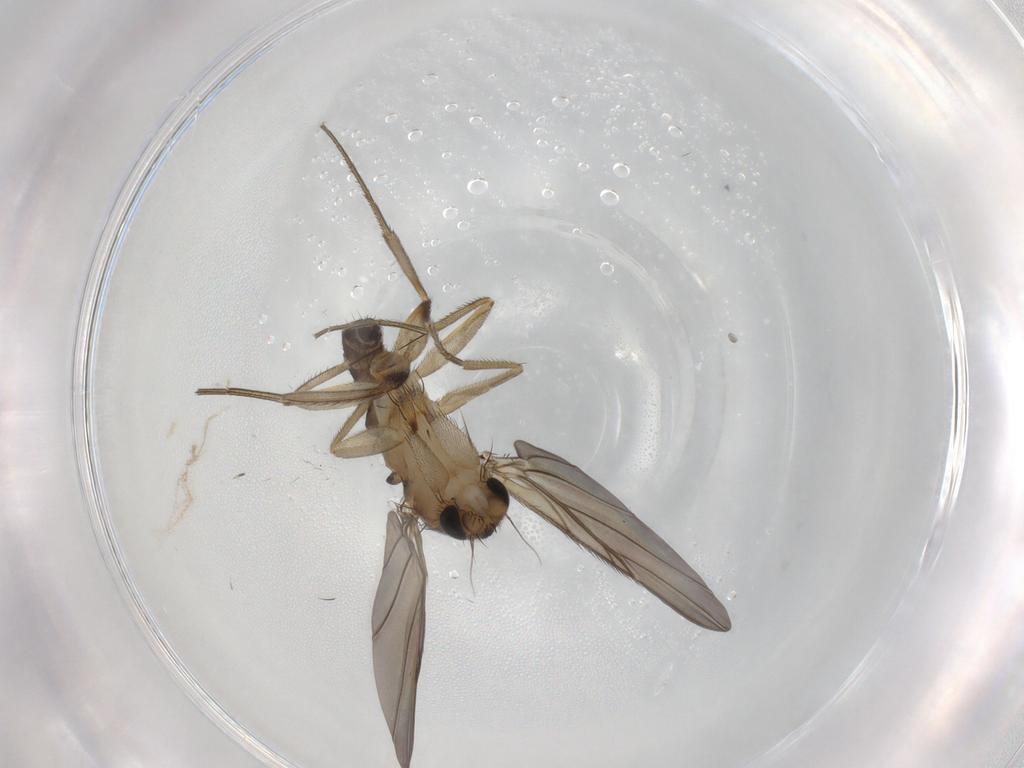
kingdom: Animalia
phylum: Arthropoda
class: Insecta
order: Diptera
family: Phoridae
